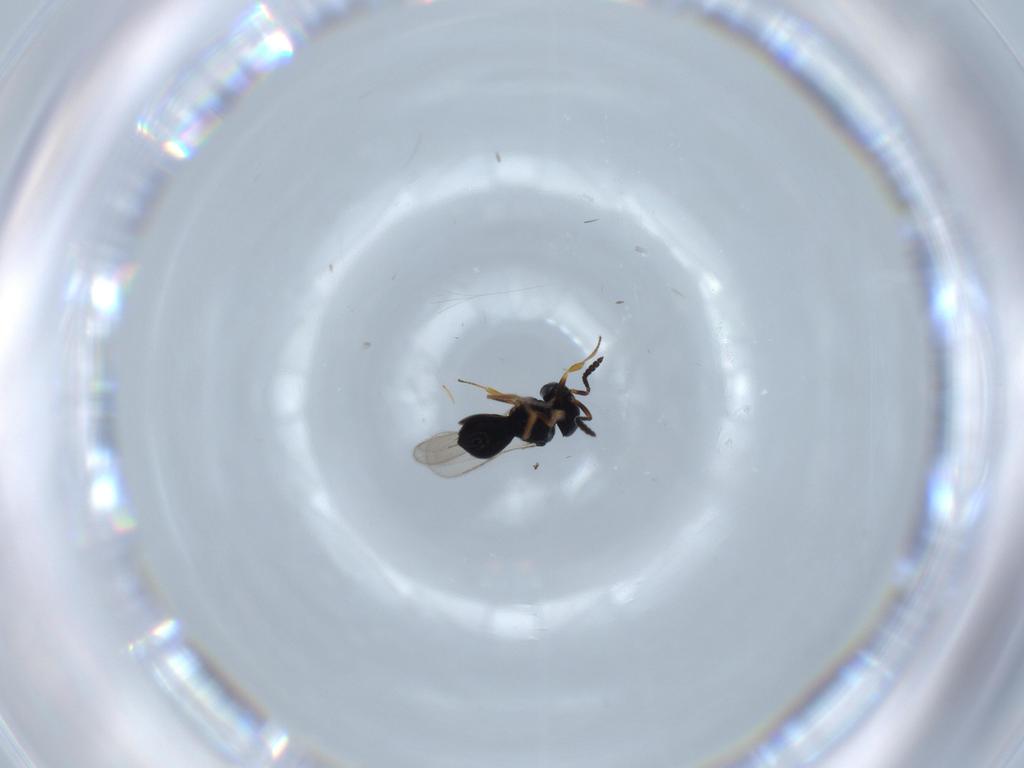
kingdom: Animalia
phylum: Arthropoda
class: Insecta
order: Hymenoptera
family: Scelionidae
